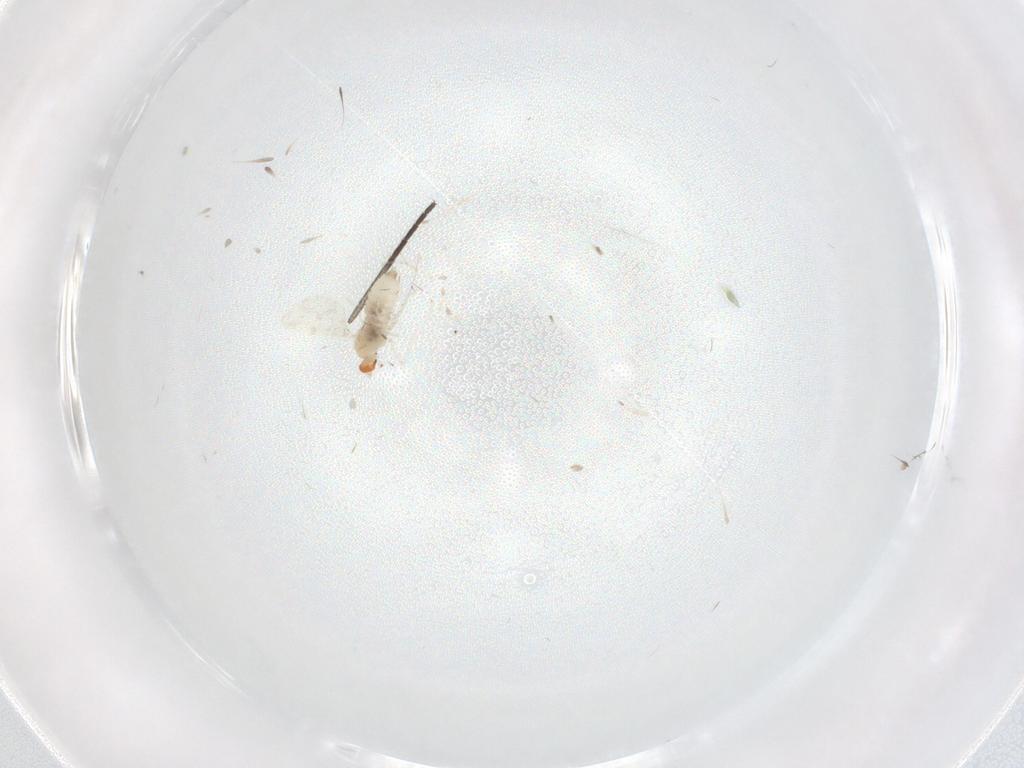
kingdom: Animalia
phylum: Arthropoda
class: Insecta
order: Diptera
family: Cecidomyiidae
